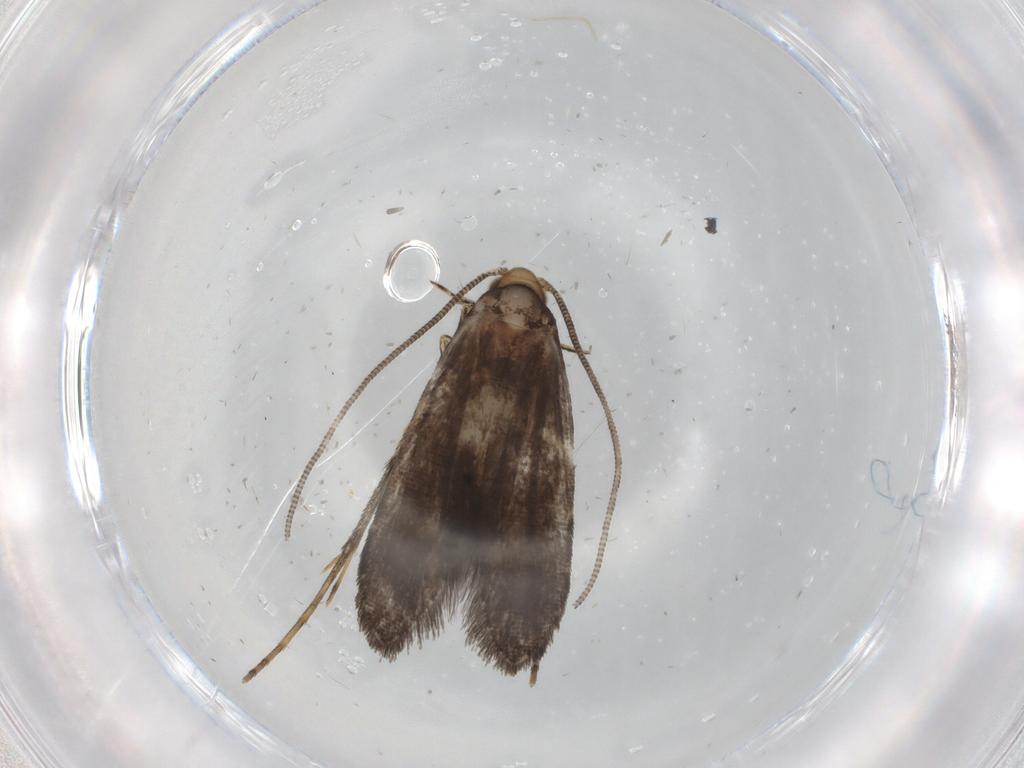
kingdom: Animalia
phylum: Arthropoda
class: Insecta
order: Lepidoptera
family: Tineidae
